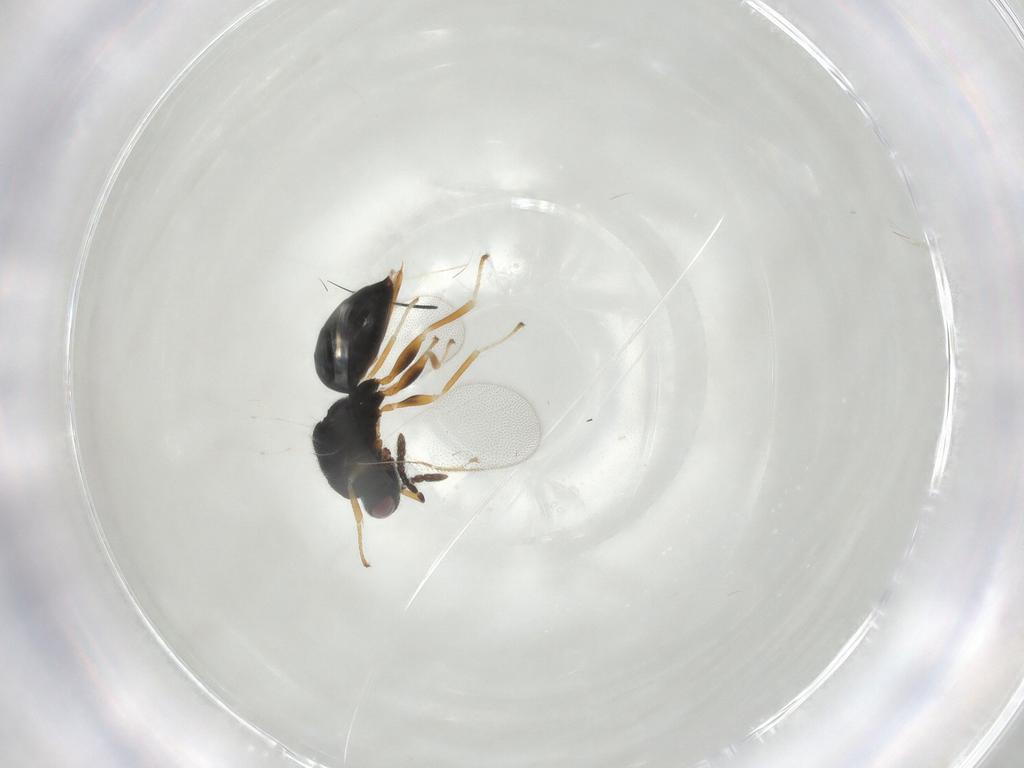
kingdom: Animalia
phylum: Arthropoda
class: Insecta
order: Hymenoptera
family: Eurytomidae
